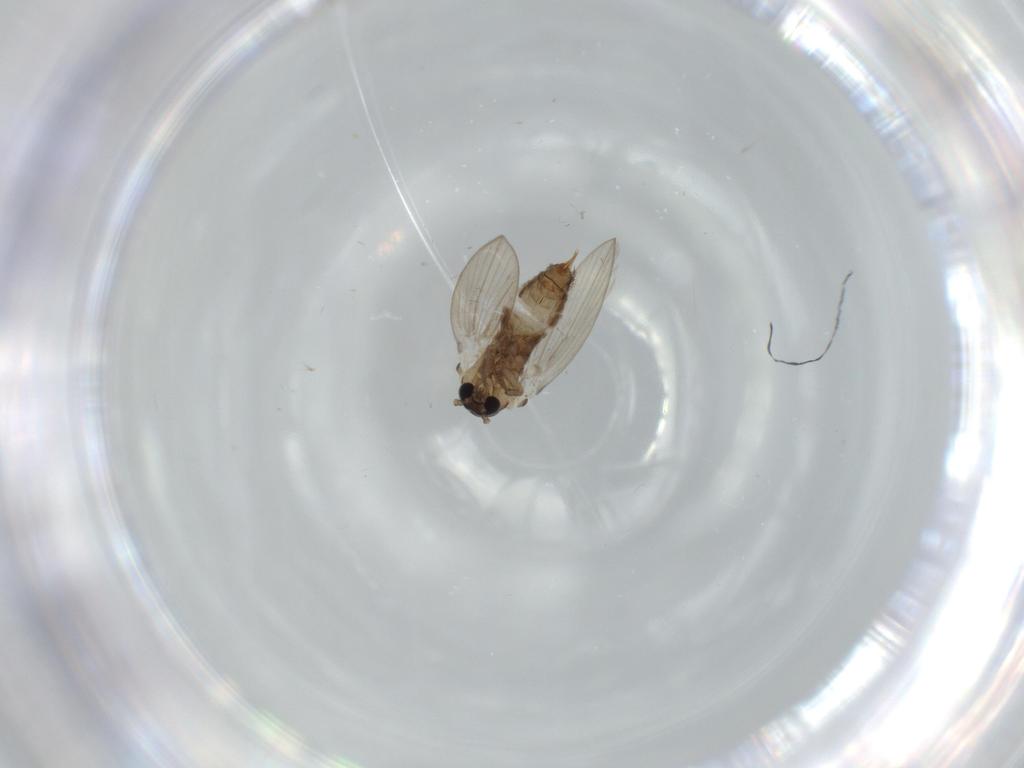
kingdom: Animalia
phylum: Arthropoda
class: Insecta
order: Diptera
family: Psychodidae
